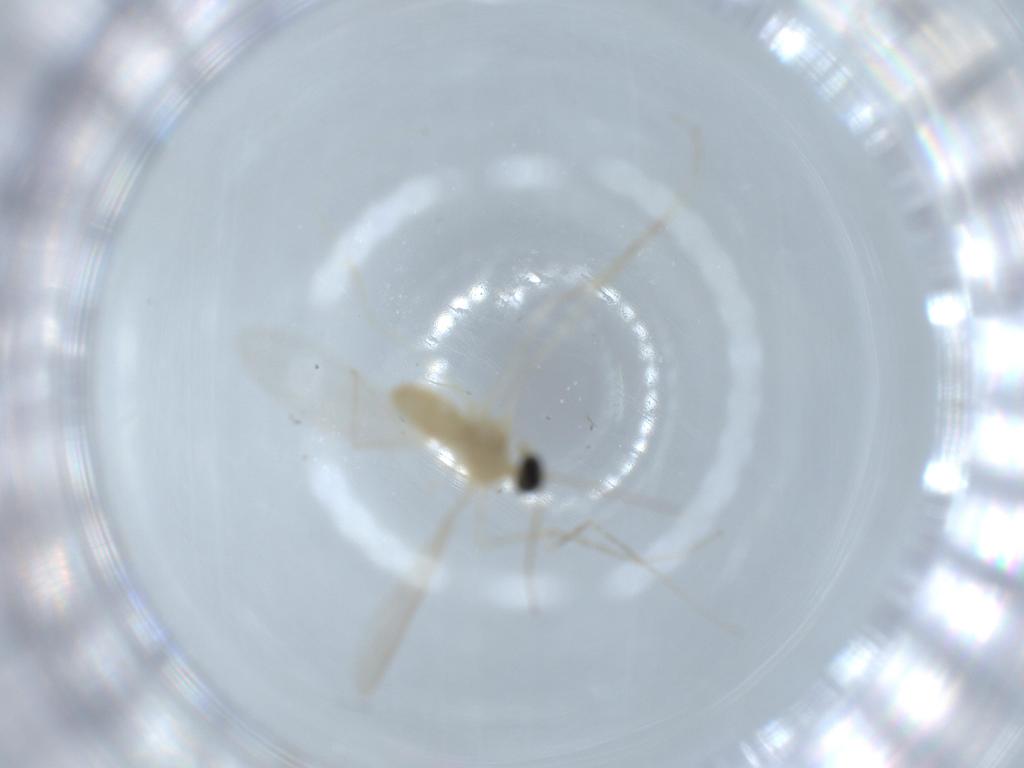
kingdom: Animalia
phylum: Arthropoda
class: Insecta
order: Diptera
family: Cecidomyiidae
